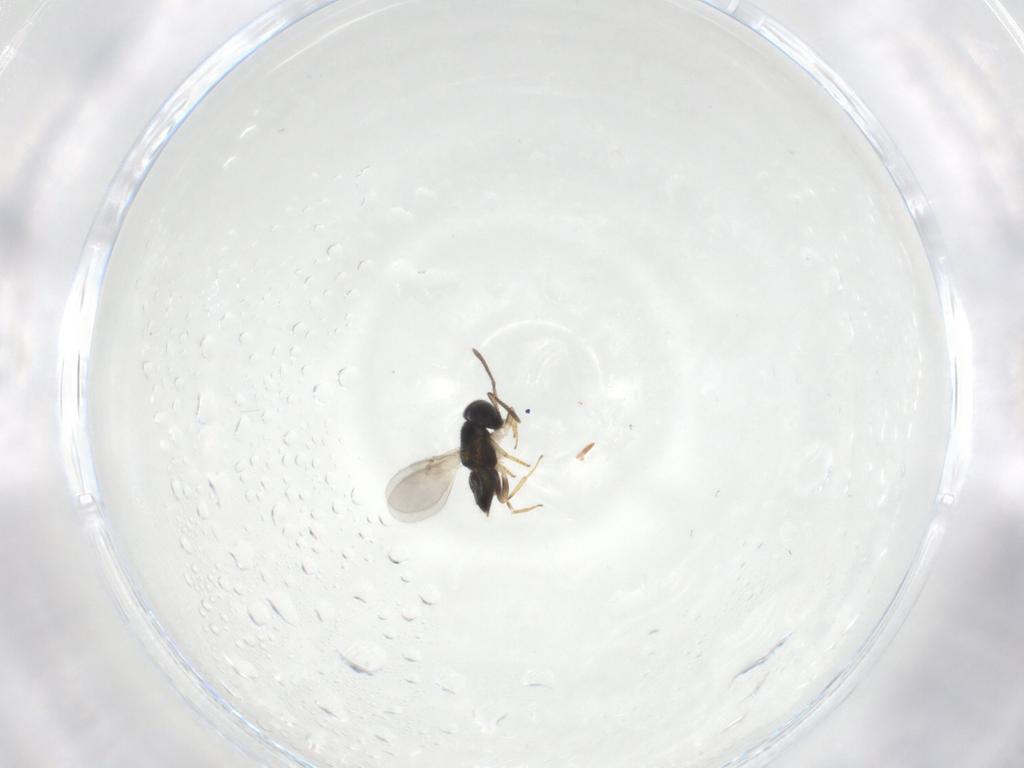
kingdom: Animalia
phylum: Arthropoda
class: Insecta
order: Hymenoptera
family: Encyrtidae
